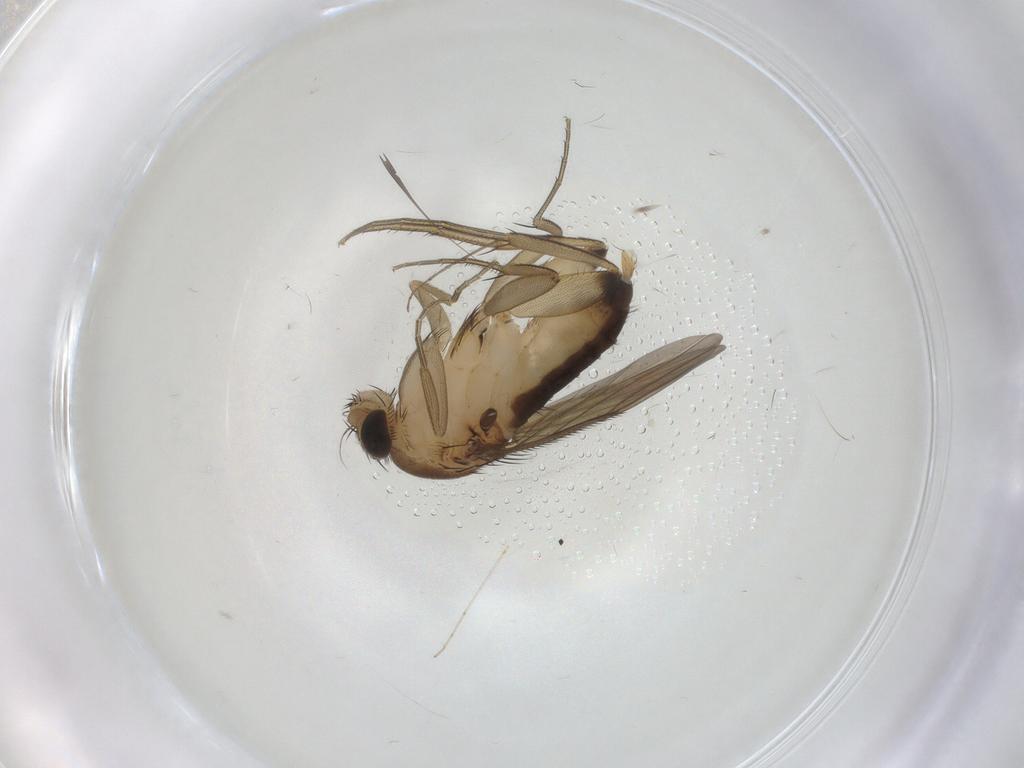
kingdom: Animalia
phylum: Arthropoda
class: Insecta
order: Diptera
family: Phoridae
